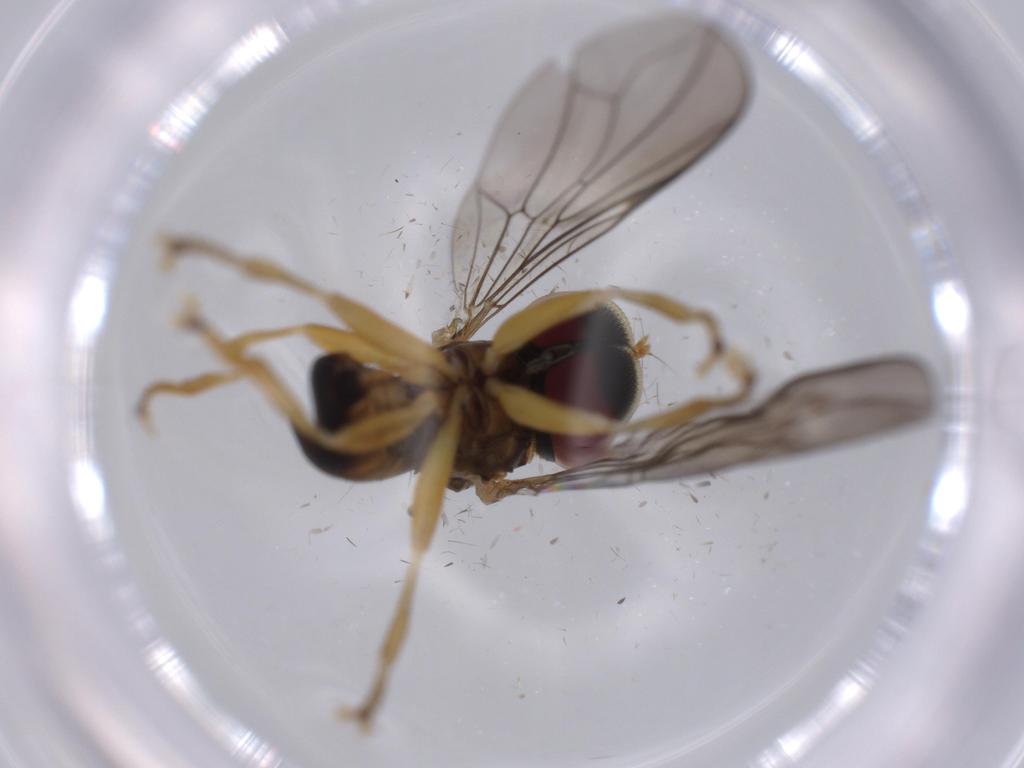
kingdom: Animalia
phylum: Arthropoda
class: Insecta
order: Diptera
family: Pipunculidae
